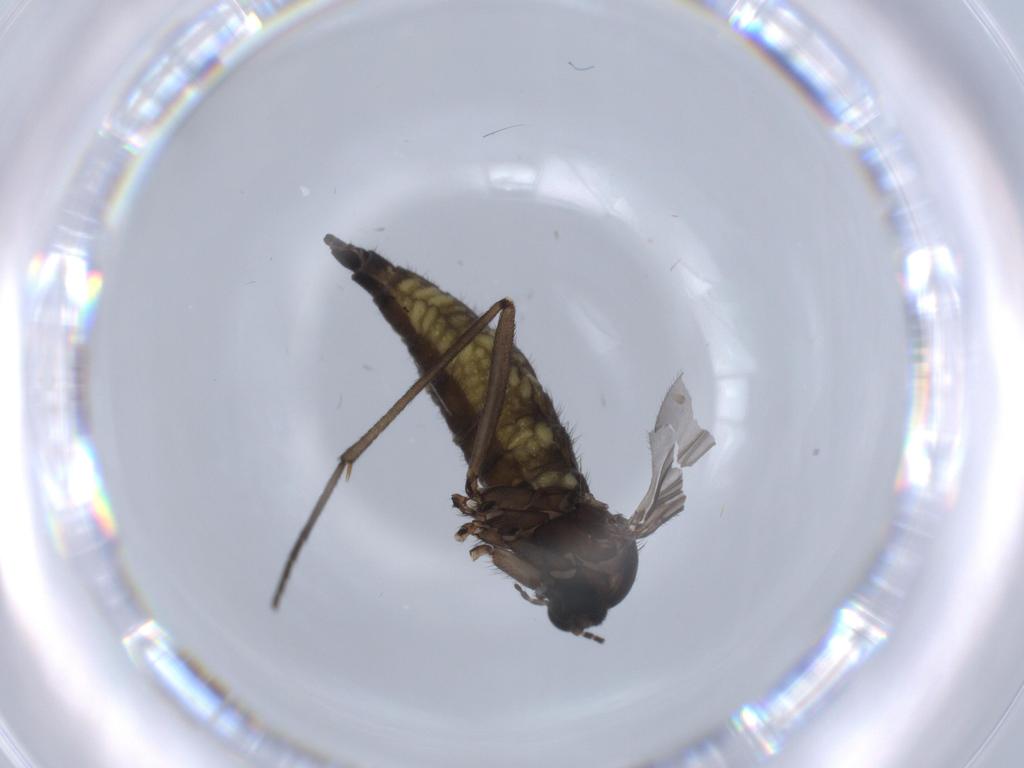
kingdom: Animalia
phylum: Arthropoda
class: Insecta
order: Diptera
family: Sciaridae
